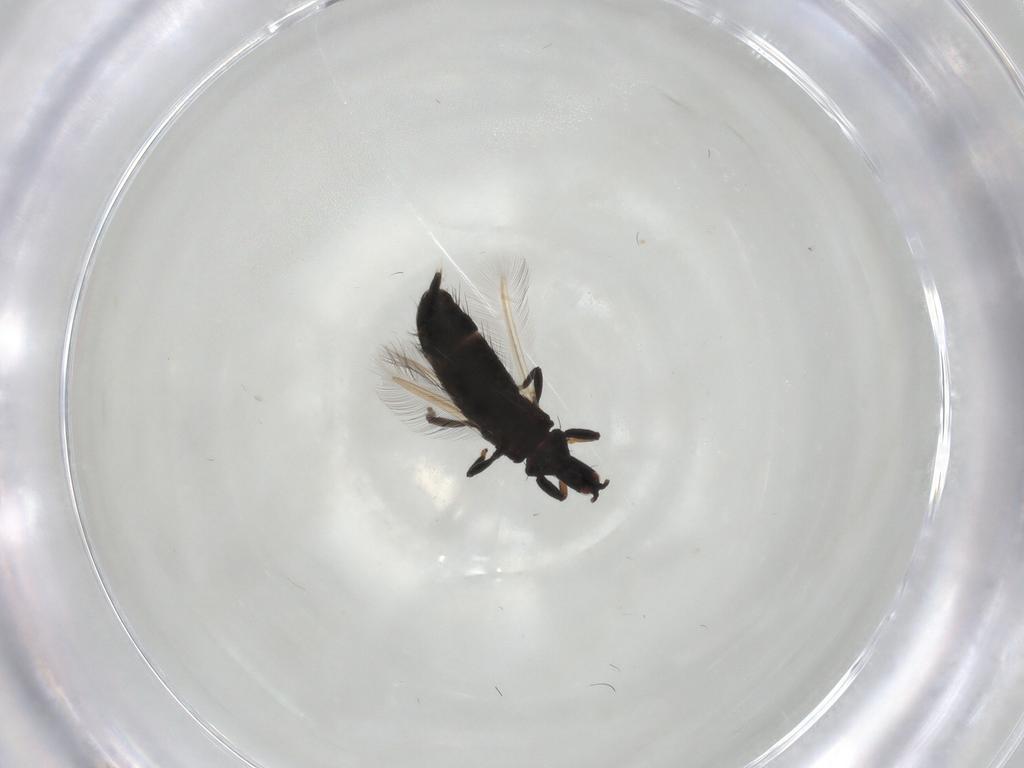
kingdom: Animalia
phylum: Arthropoda
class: Insecta
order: Thysanoptera
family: Phlaeothripidae
